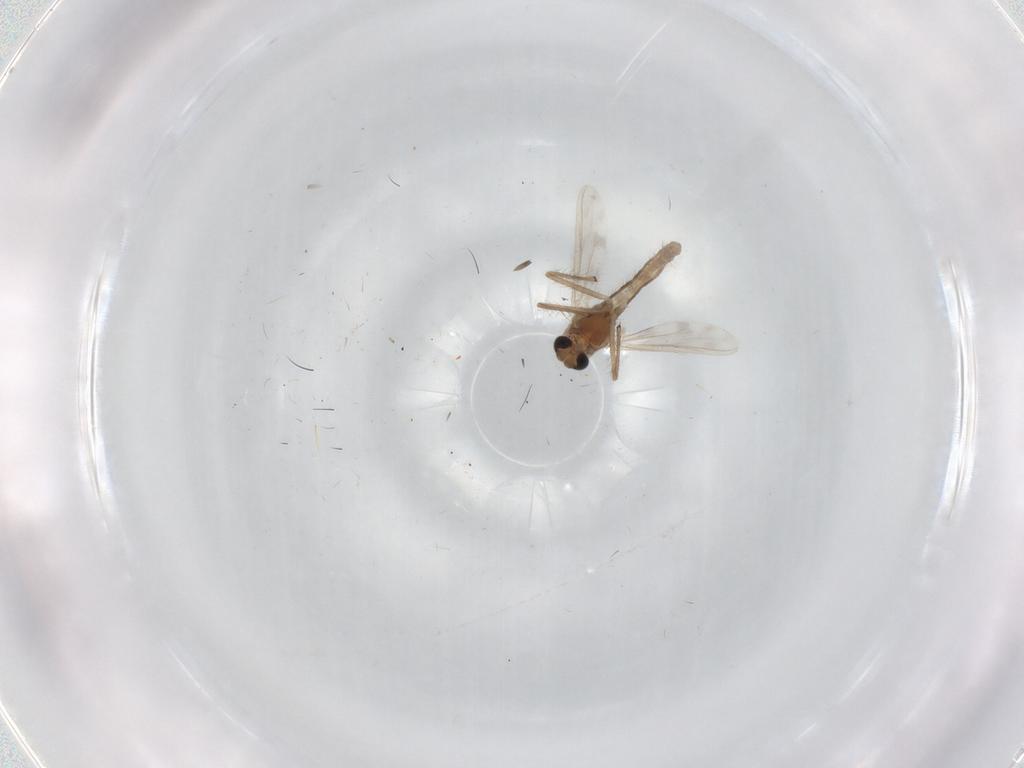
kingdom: Animalia
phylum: Arthropoda
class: Insecta
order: Diptera
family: Chironomidae
